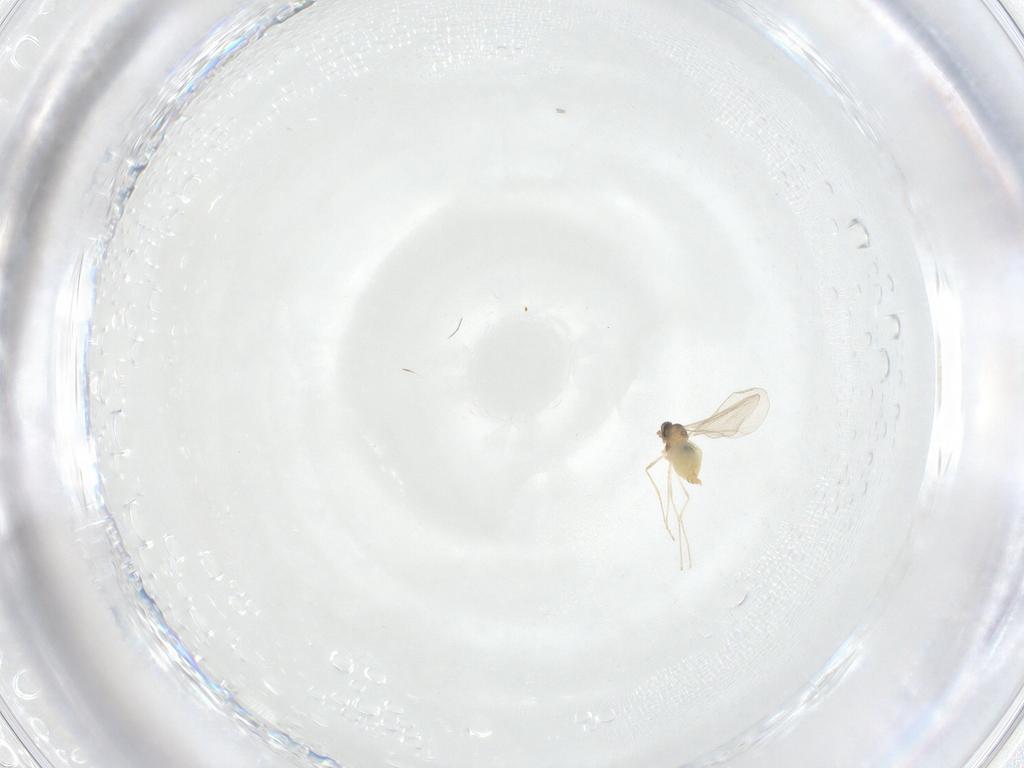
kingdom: Animalia
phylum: Arthropoda
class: Insecta
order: Diptera
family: Cecidomyiidae
